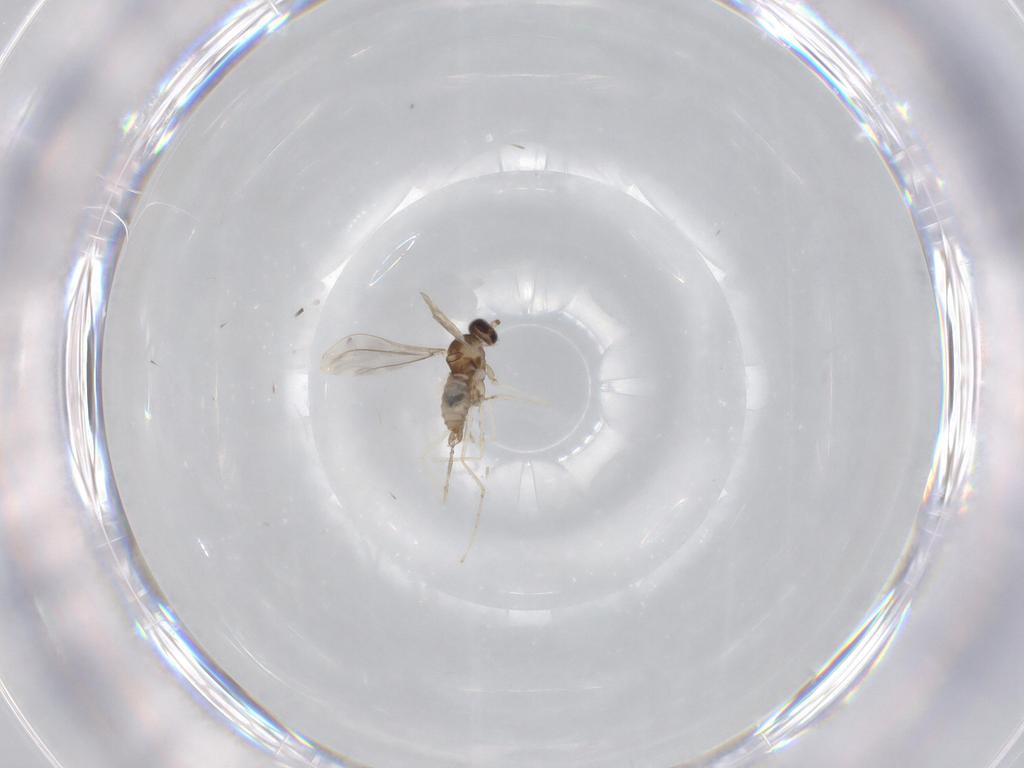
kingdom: Animalia
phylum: Arthropoda
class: Insecta
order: Diptera
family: Cecidomyiidae
